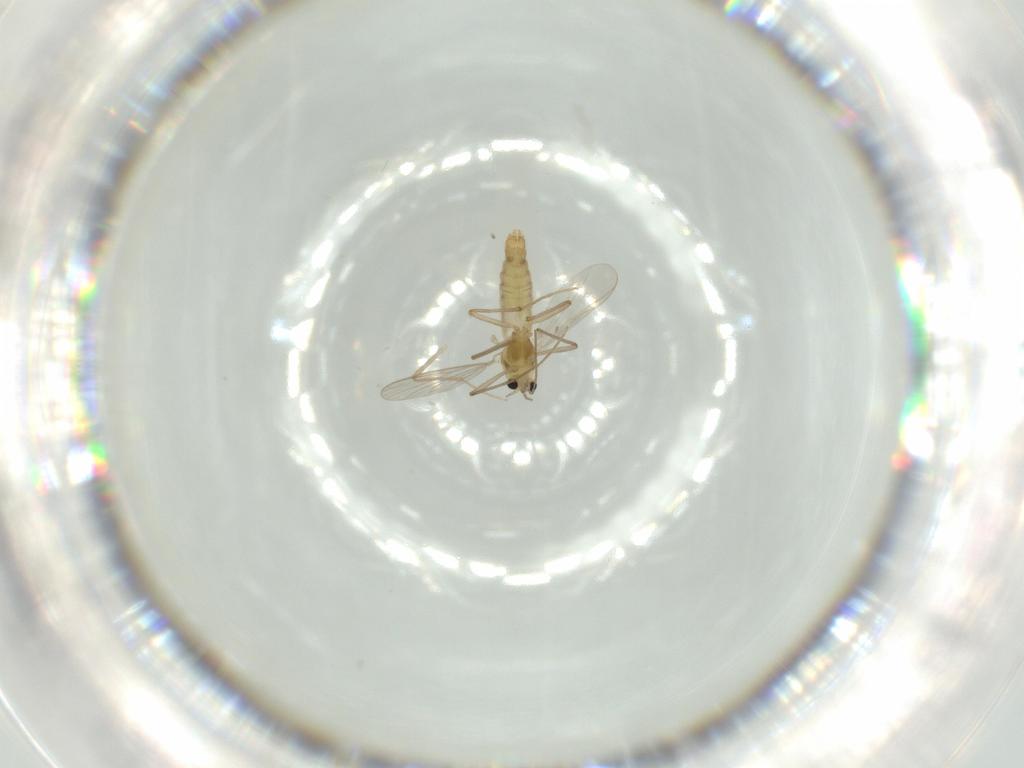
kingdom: Animalia
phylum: Arthropoda
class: Insecta
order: Diptera
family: Chironomidae
